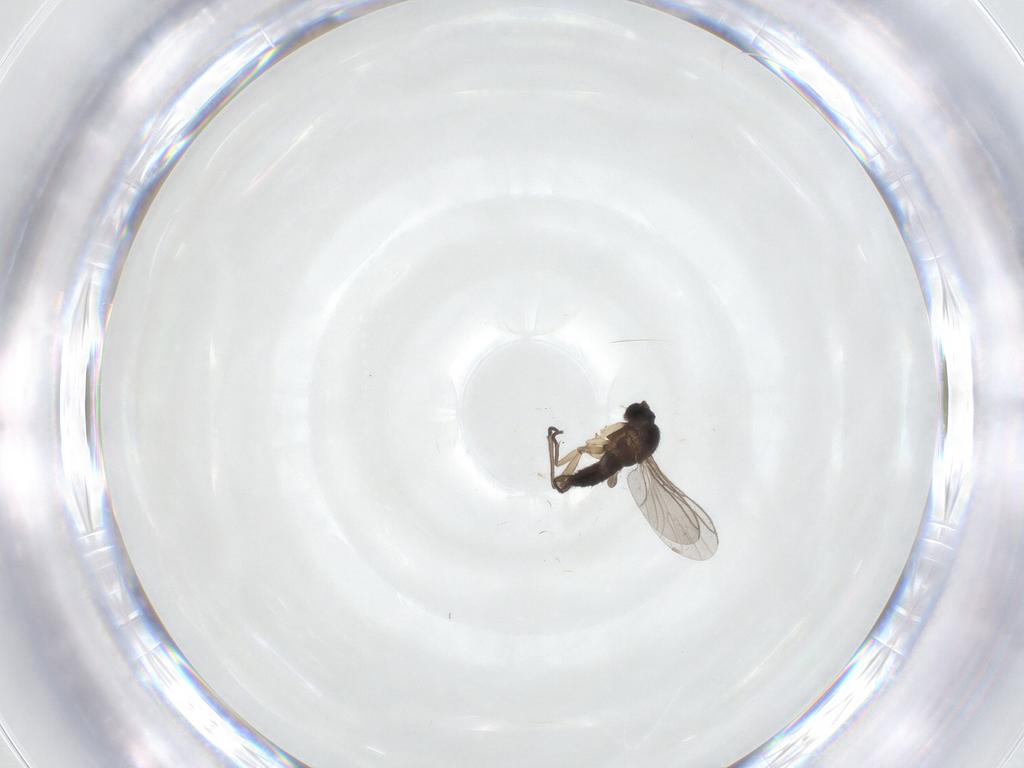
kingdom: Animalia
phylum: Arthropoda
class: Insecta
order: Diptera
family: Sciaridae
